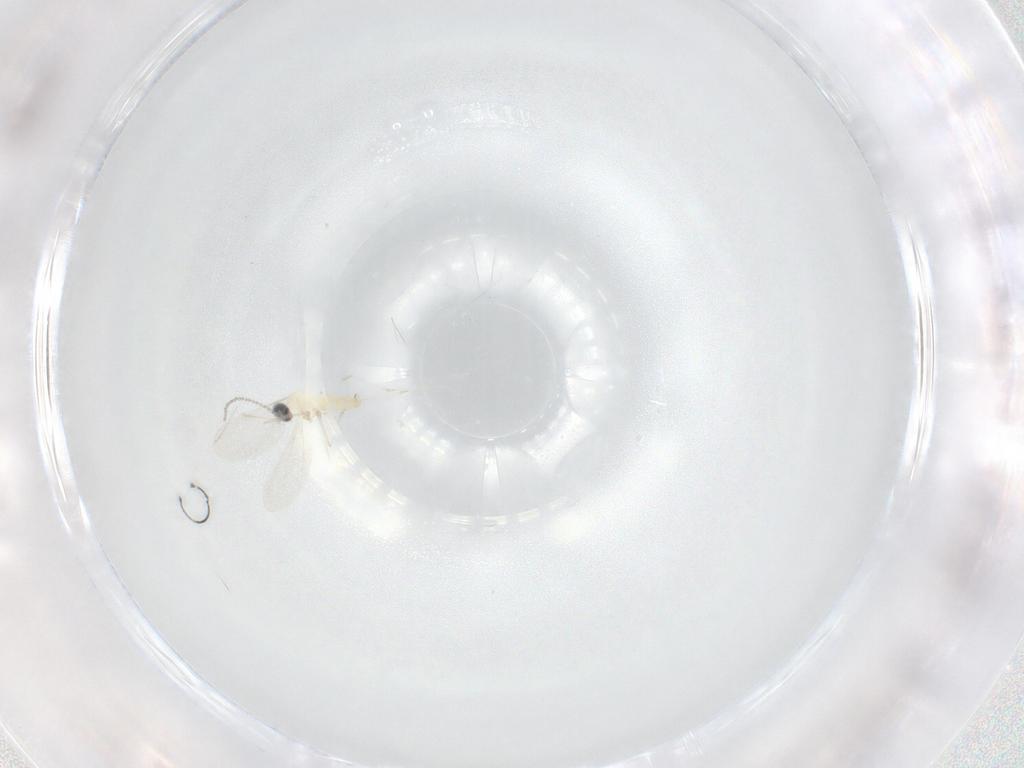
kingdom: Animalia
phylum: Arthropoda
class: Insecta
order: Diptera
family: Cecidomyiidae
